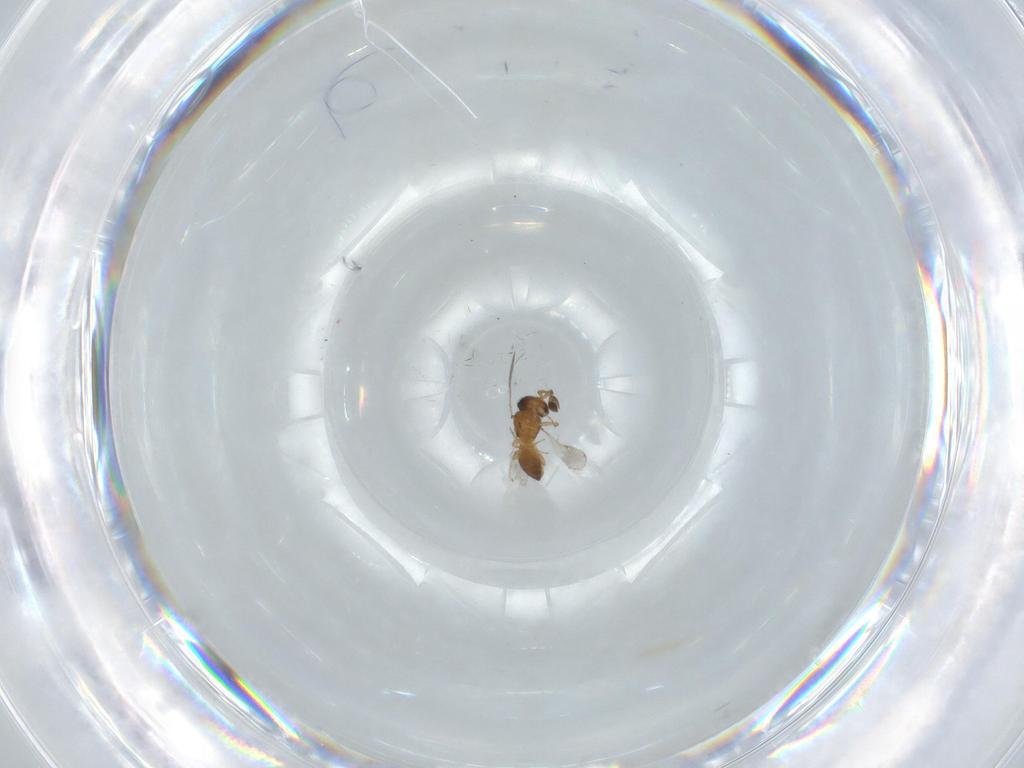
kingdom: Animalia
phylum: Arthropoda
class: Insecta
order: Hymenoptera
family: Scelionidae
